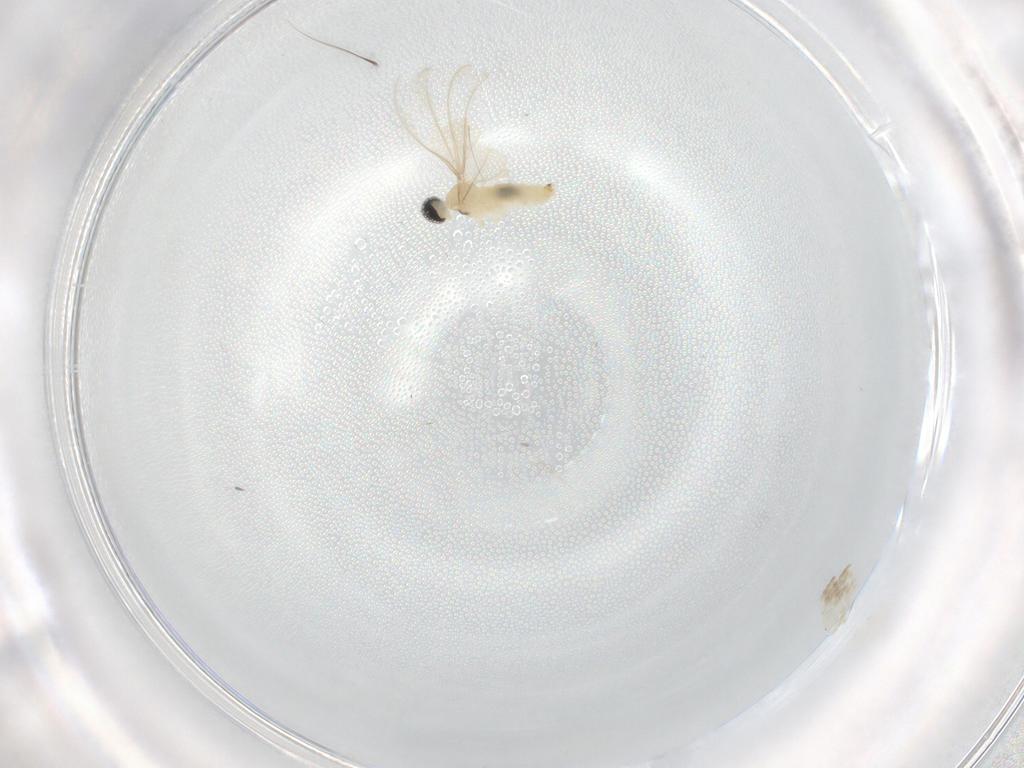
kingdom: Animalia
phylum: Arthropoda
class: Insecta
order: Diptera
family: Cecidomyiidae
